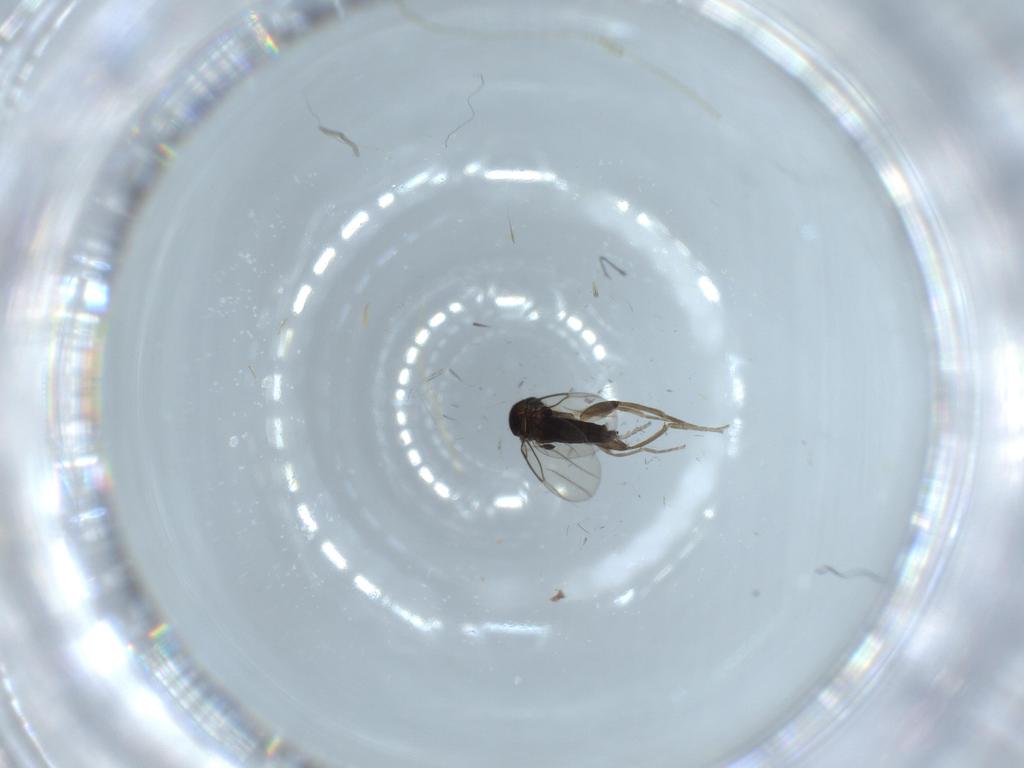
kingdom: Animalia
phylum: Arthropoda
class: Insecta
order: Diptera
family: Phoridae
